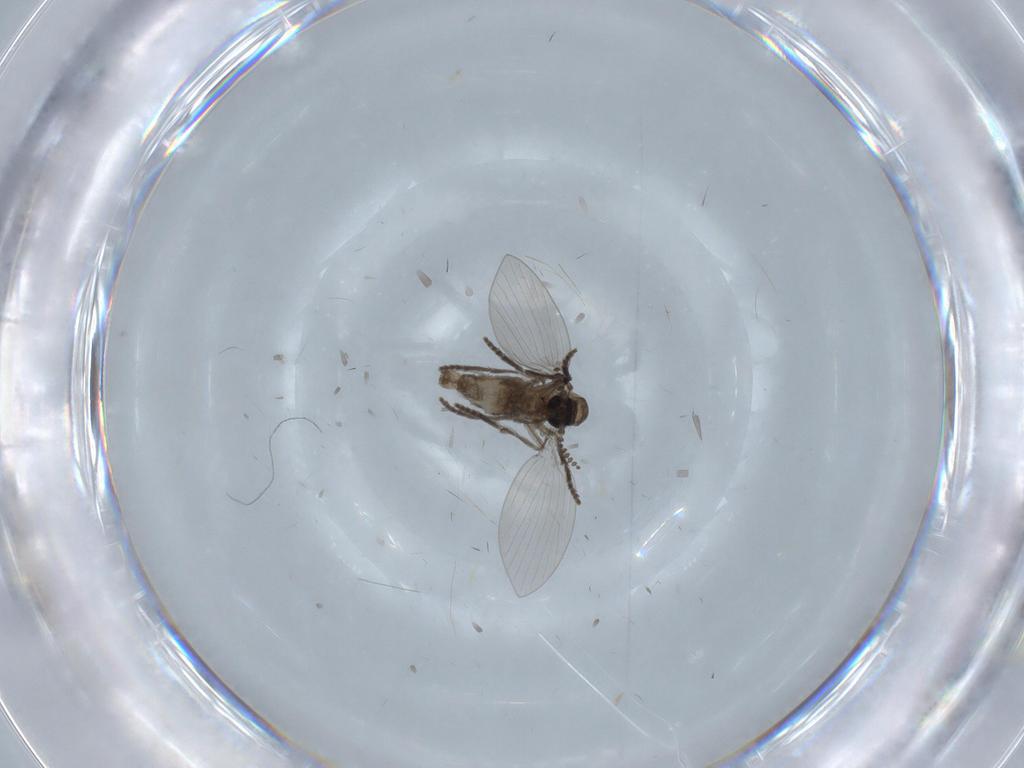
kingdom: Animalia
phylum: Arthropoda
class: Insecta
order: Diptera
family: Psychodidae
